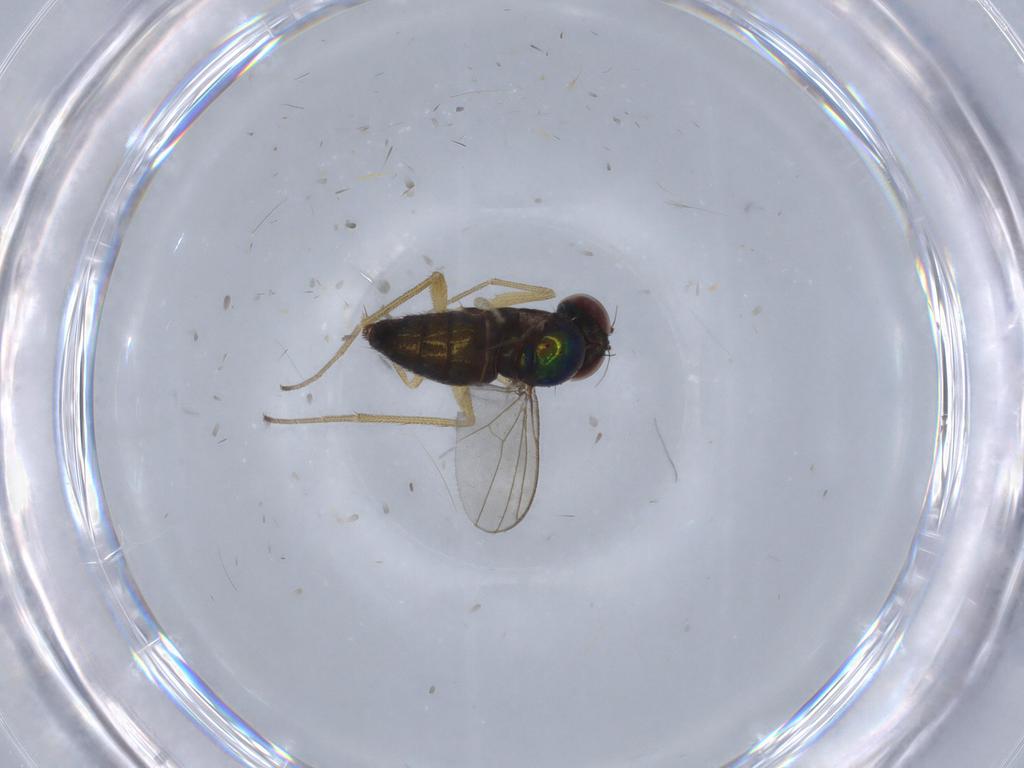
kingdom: Animalia
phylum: Arthropoda
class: Insecta
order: Diptera
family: Dolichopodidae
